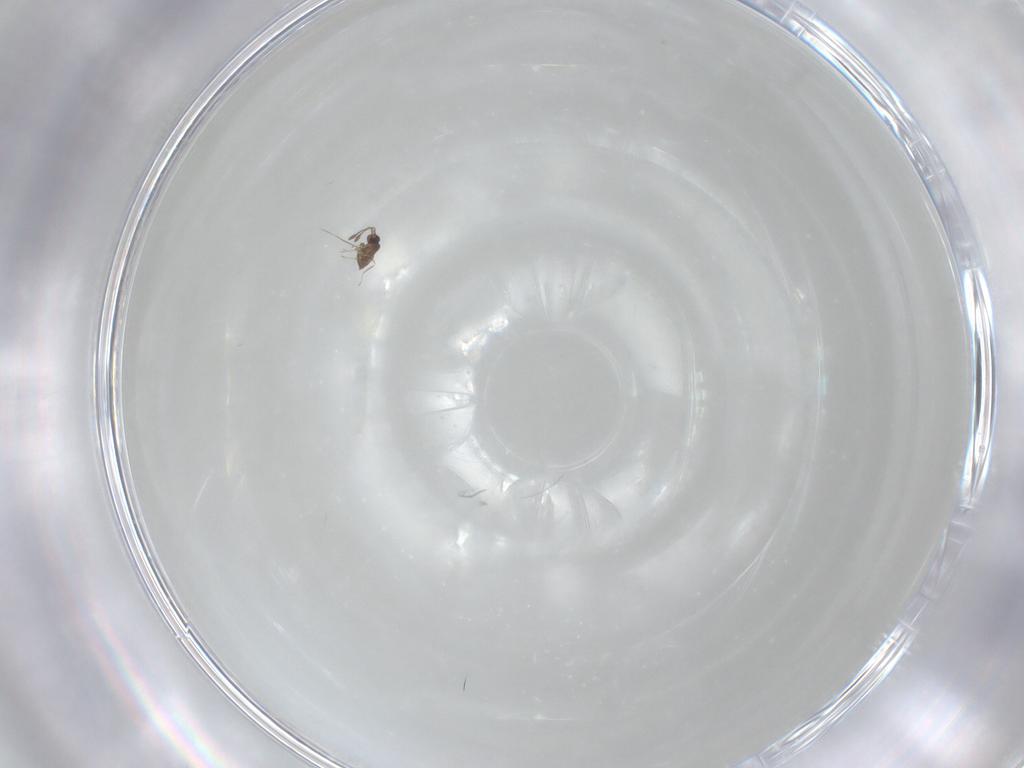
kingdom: Animalia
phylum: Arthropoda
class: Insecta
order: Hymenoptera
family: Mymaridae
